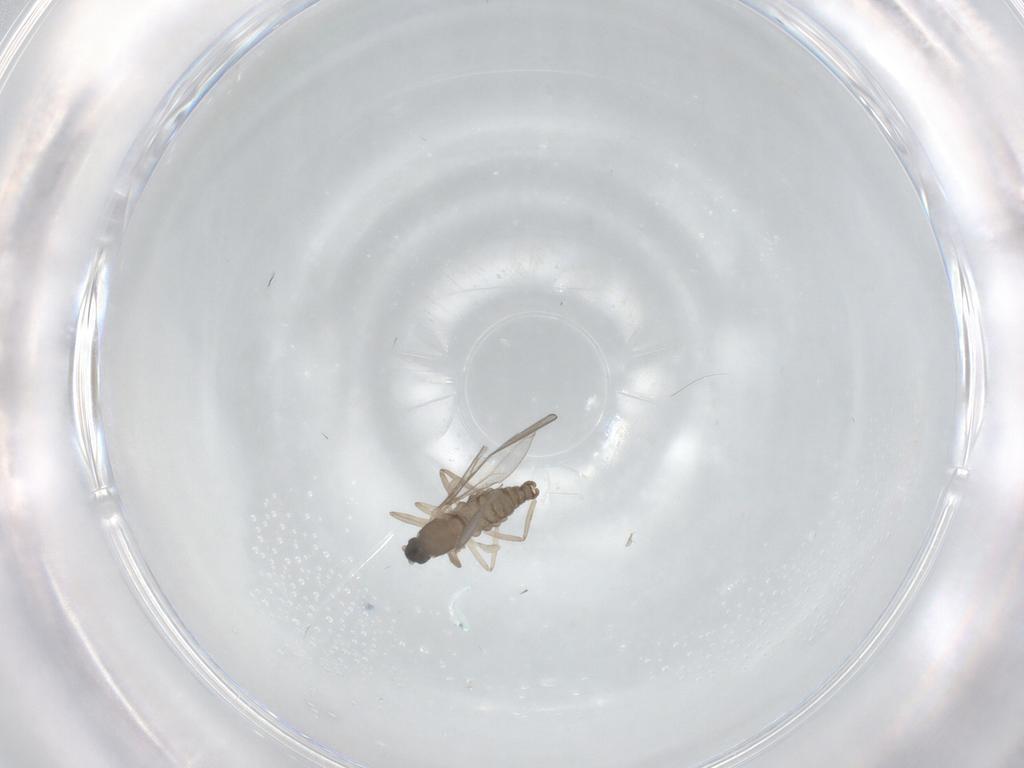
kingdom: Animalia
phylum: Arthropoda
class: Insecta
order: Diptera
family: Cecidomyiidae
